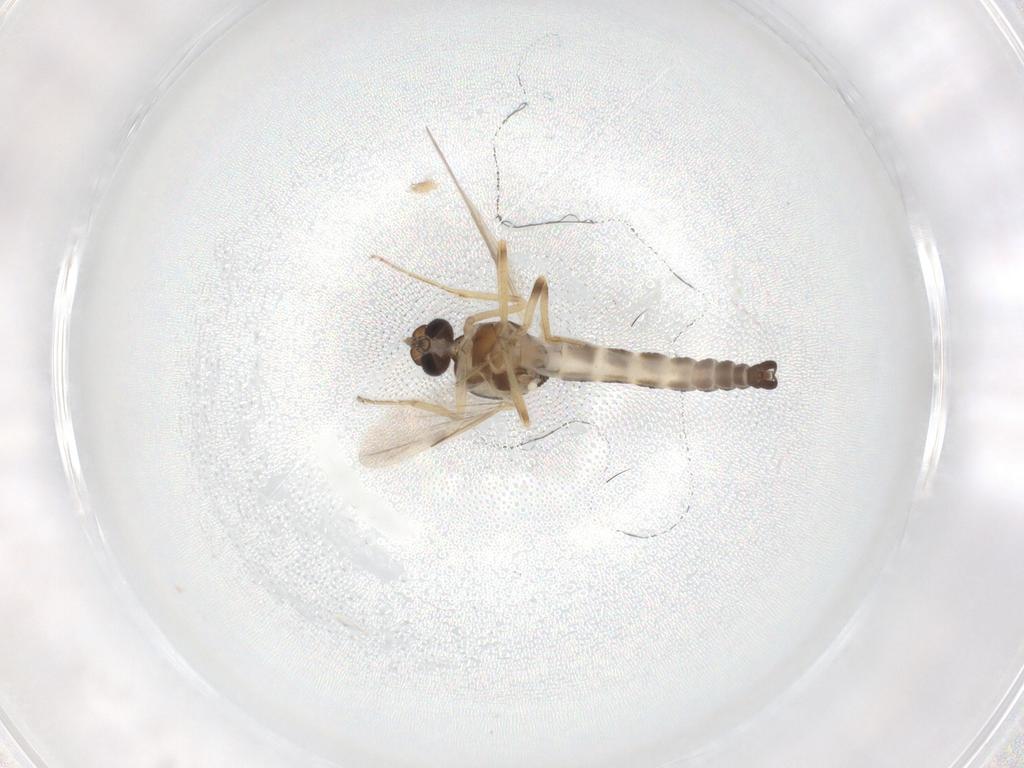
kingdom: Animalia
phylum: Arthropoda
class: Insecta
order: Diptera
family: Ceratopogonidae
